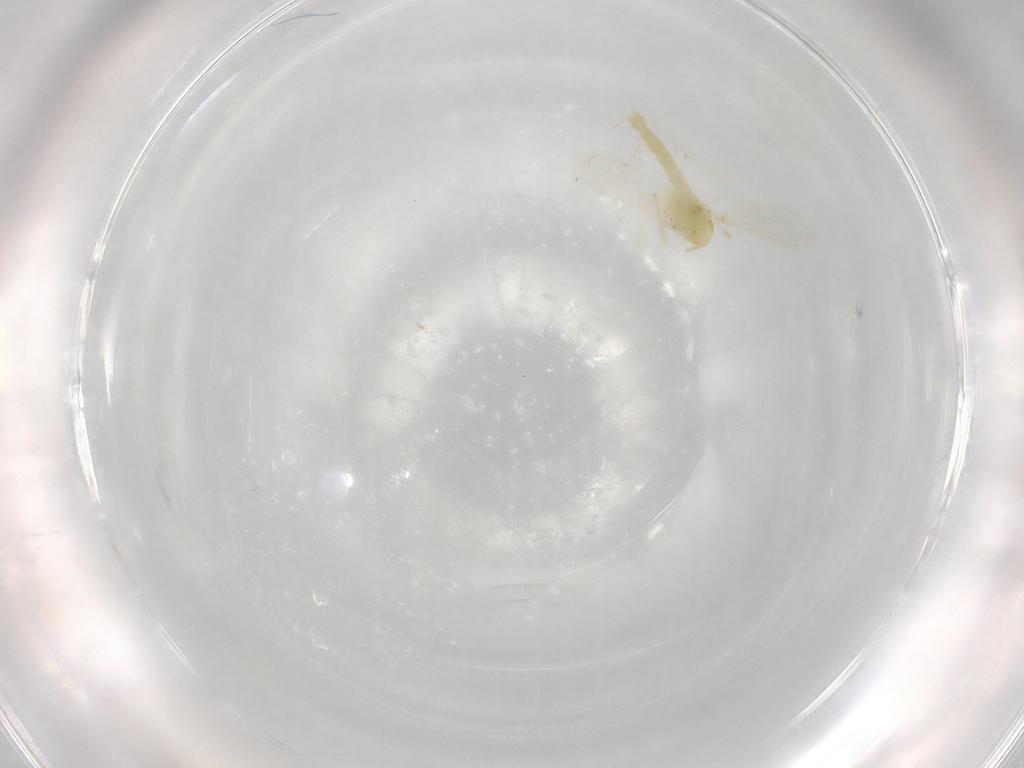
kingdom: Animalia
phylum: Arthropoda
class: Insecta
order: Diptera
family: Chironomidae
